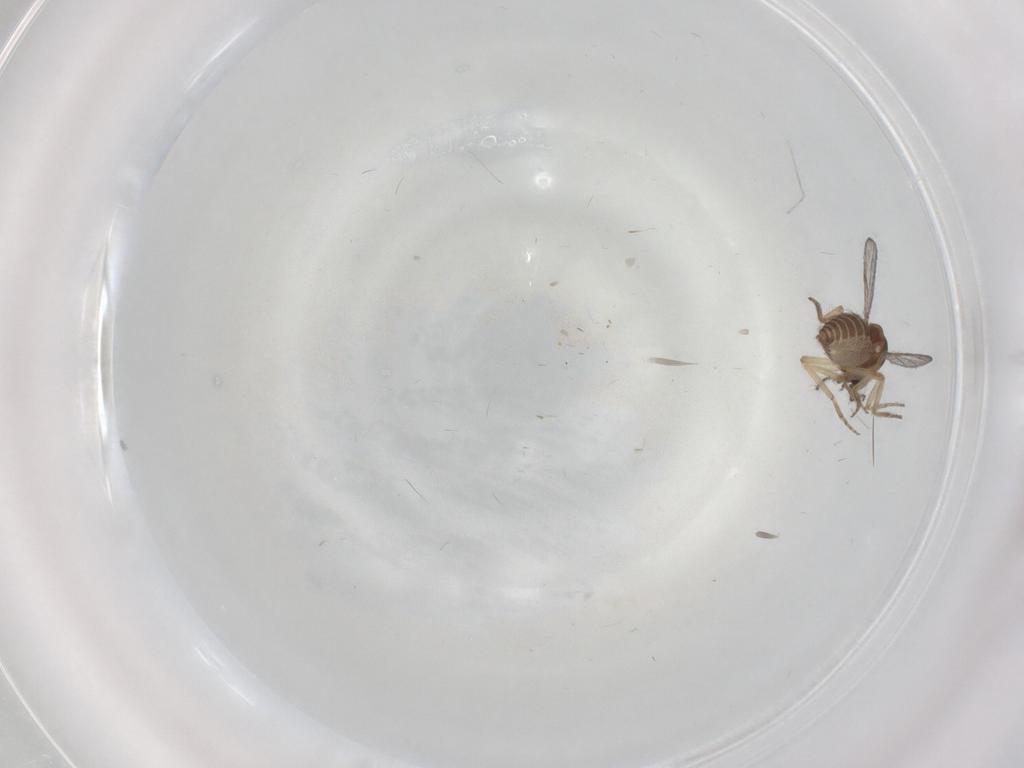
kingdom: Animalia
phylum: Arthropoda
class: Insecta
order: Diptera
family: Ceratopogonidae
